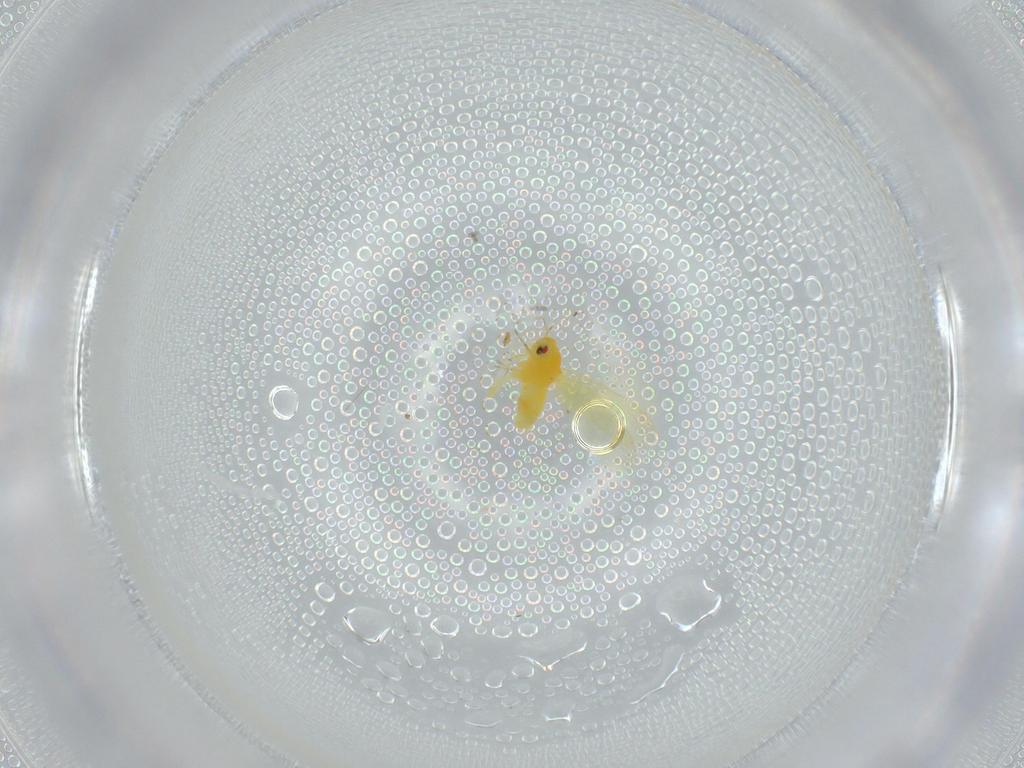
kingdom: Animalia
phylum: Arthropoda
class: Insecta
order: Hemiptera
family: Aleyrodidae
